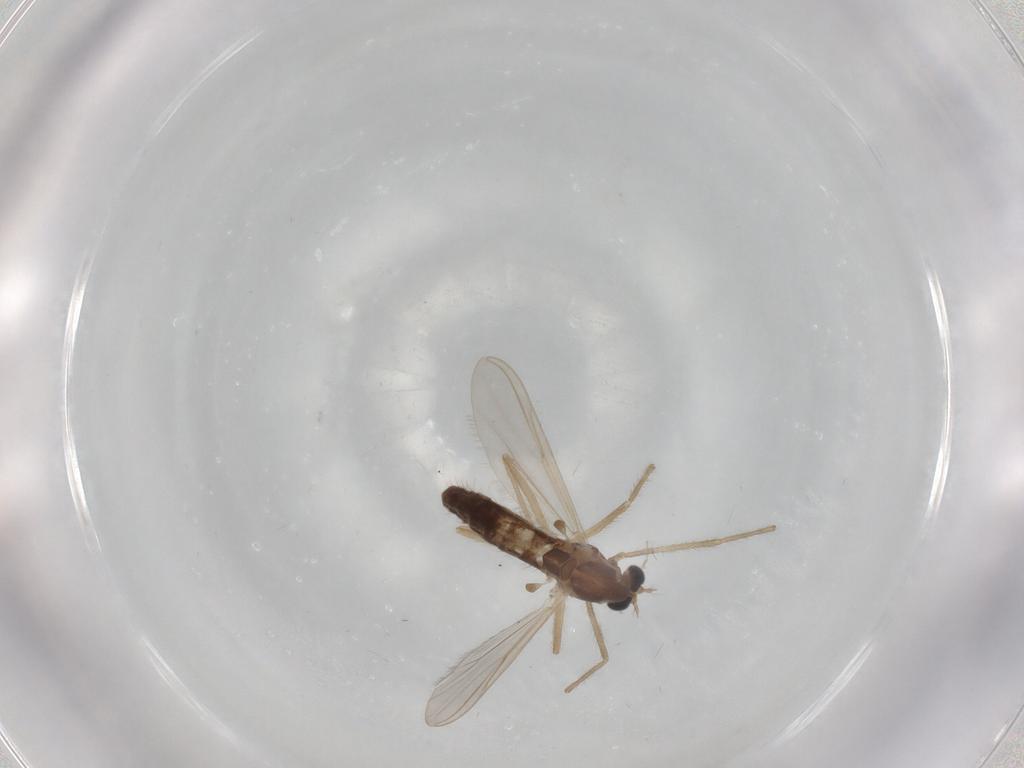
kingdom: Animalia
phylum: Arthropoda
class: Insecta
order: Diptera
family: Chironomidae
